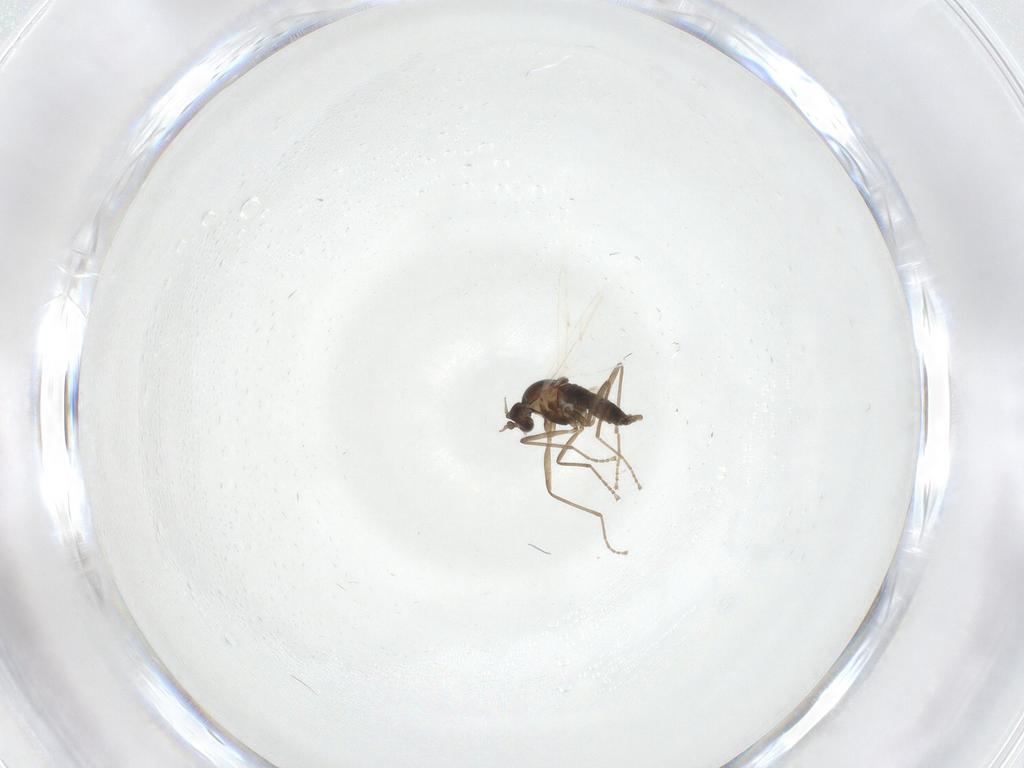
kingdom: Animalia
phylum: Arthropoda
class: Insecta
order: Diptera
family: Cecidomyiidae
